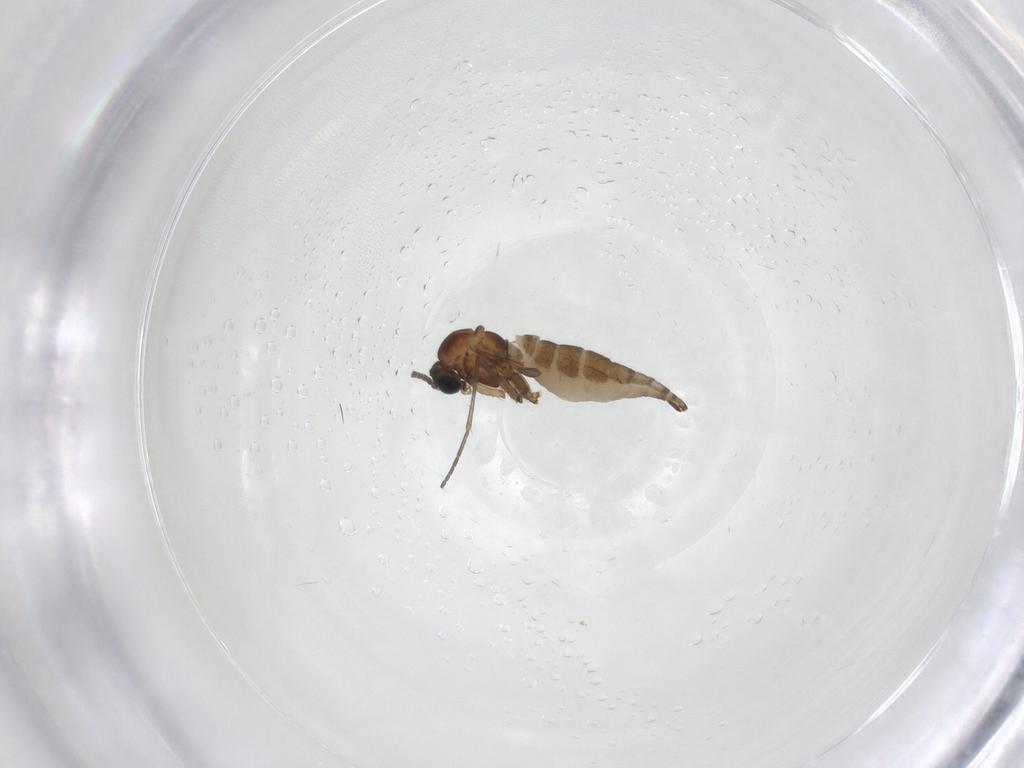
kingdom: Animalia
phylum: Arthropoda
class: Insecta
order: Diptera
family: Sciaridae
